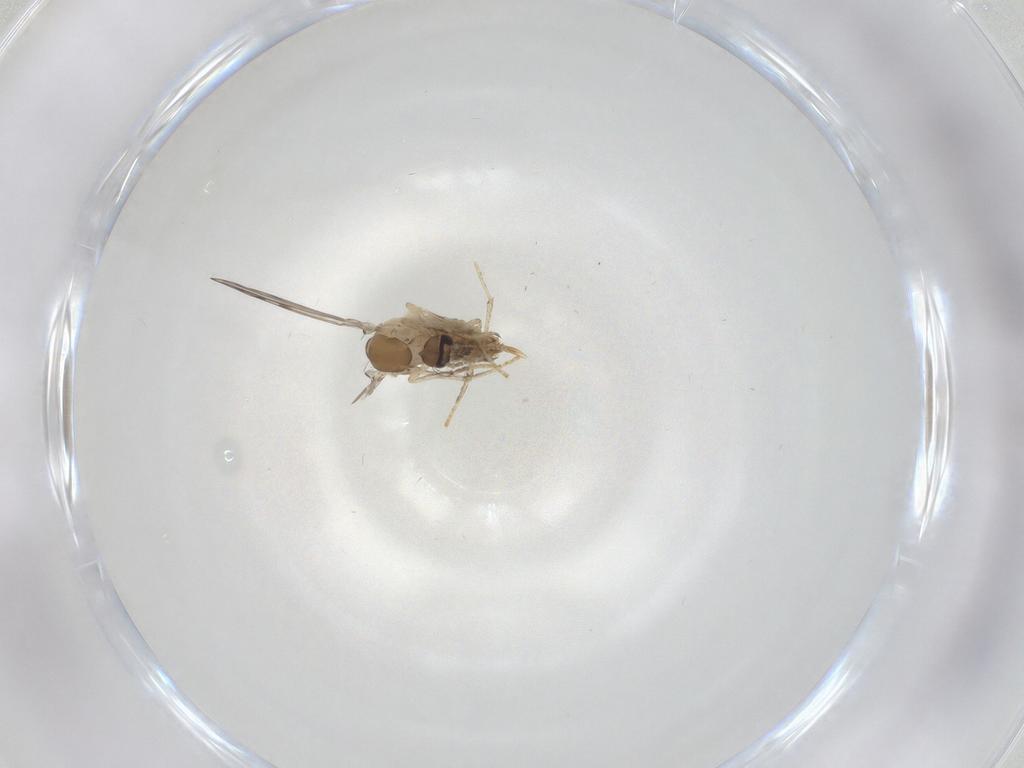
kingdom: Animalia
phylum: Arthropoda
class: Insecta
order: Diptera
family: Psychodidae
